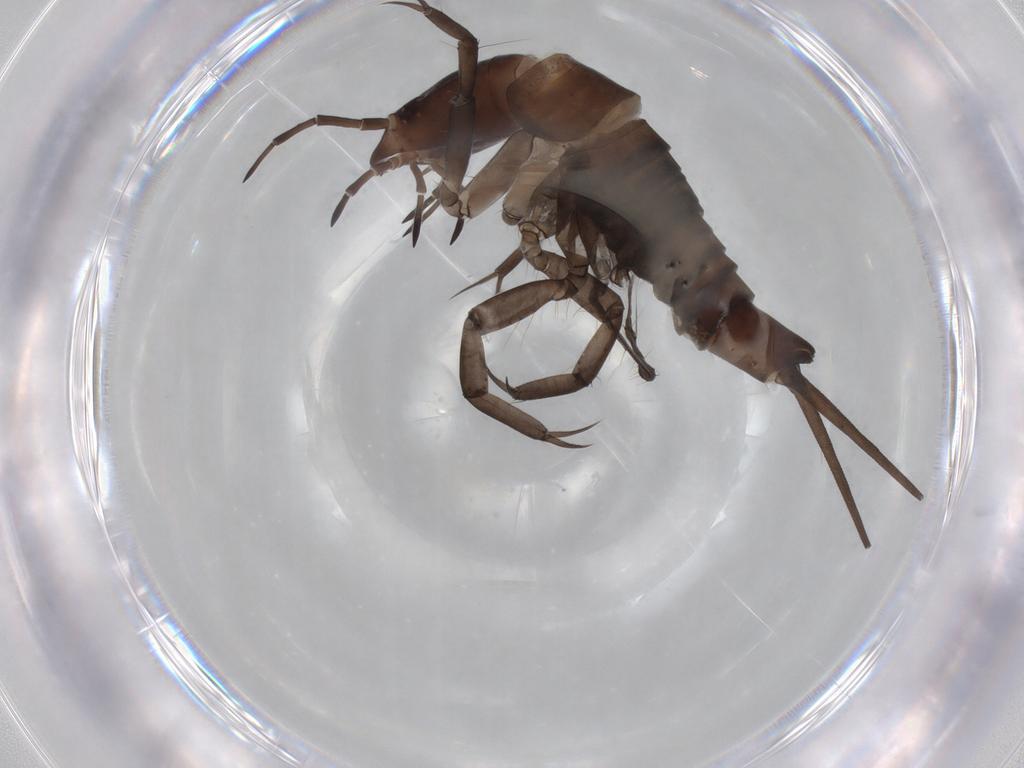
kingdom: Animalia
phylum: Arthropoda
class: Insecta
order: Coleoptera
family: Dytiscidae
